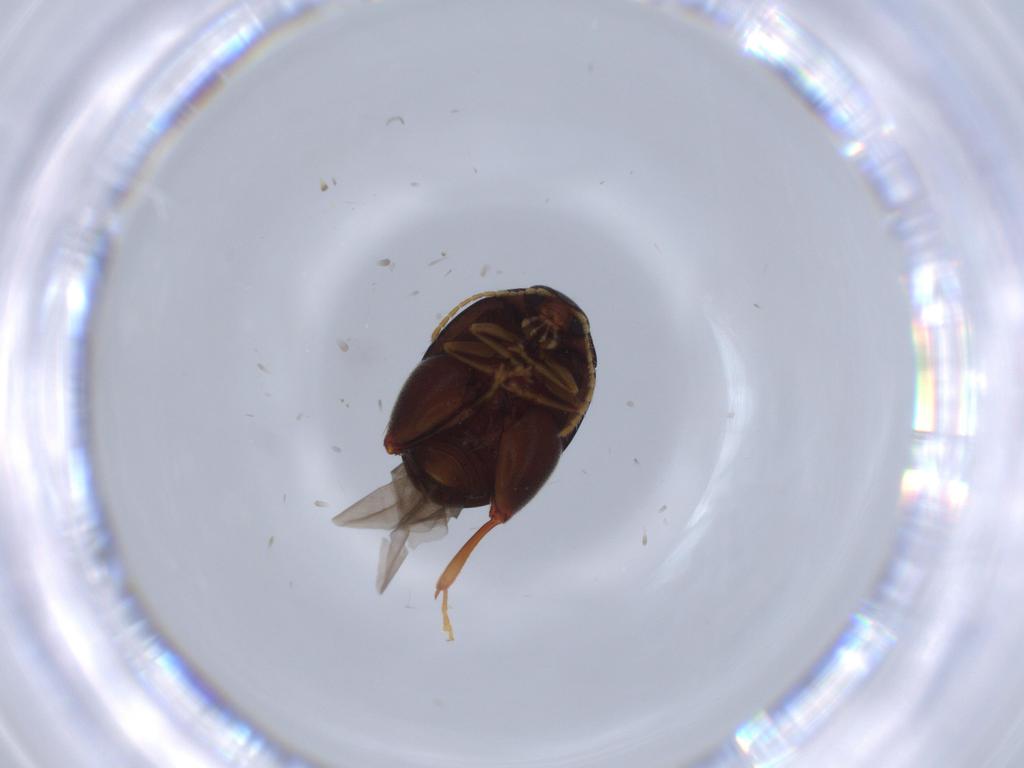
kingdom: Animalia
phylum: Arthropoda
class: Insecta
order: Coleoptera
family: Chrysomelidae
